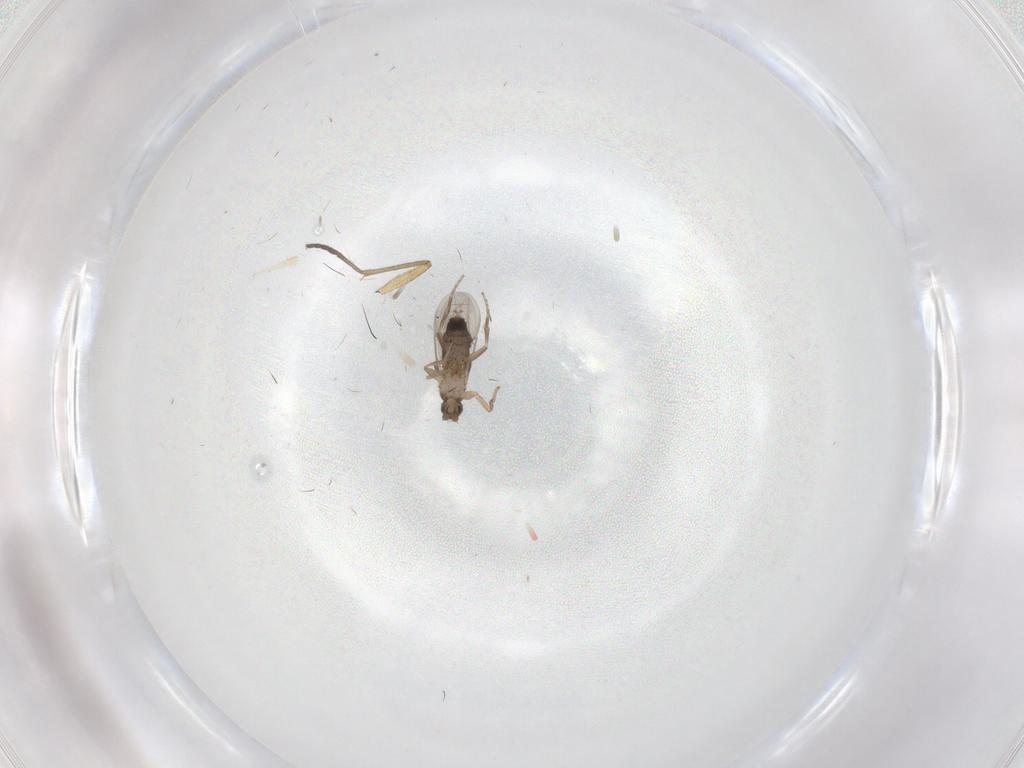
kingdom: Animalia
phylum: Arthropoda
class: Insecta
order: Diptera
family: Sciaridae
